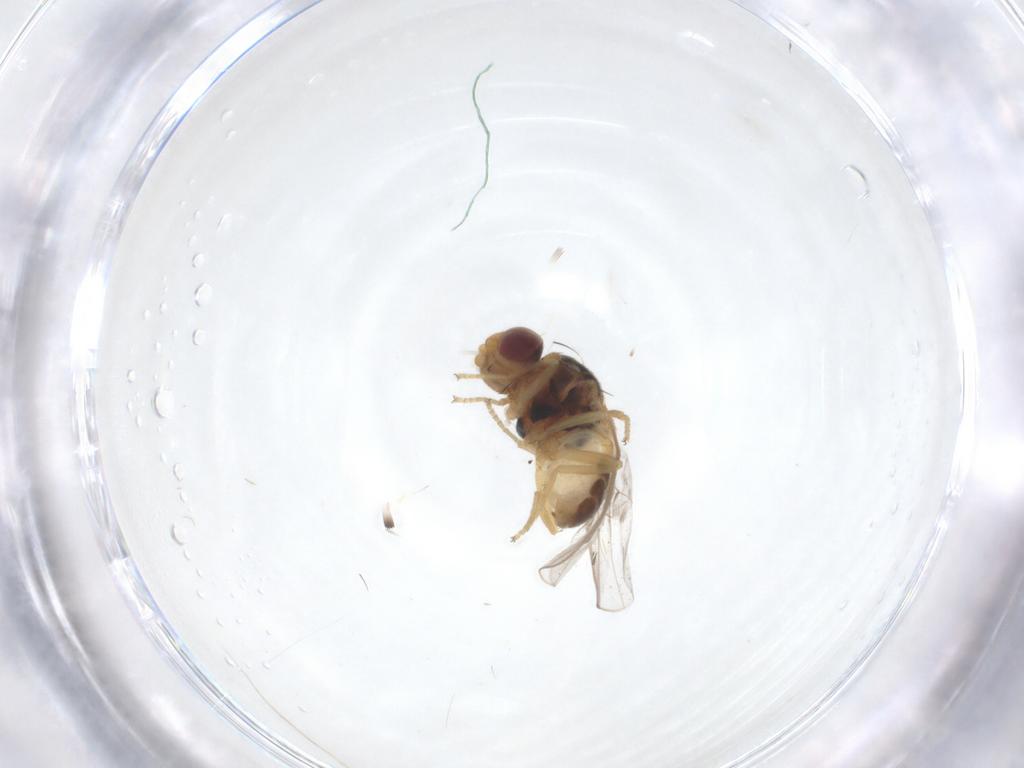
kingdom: Animalia
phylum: Arthropoda
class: Insecta
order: Diptera
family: Chloropidae
